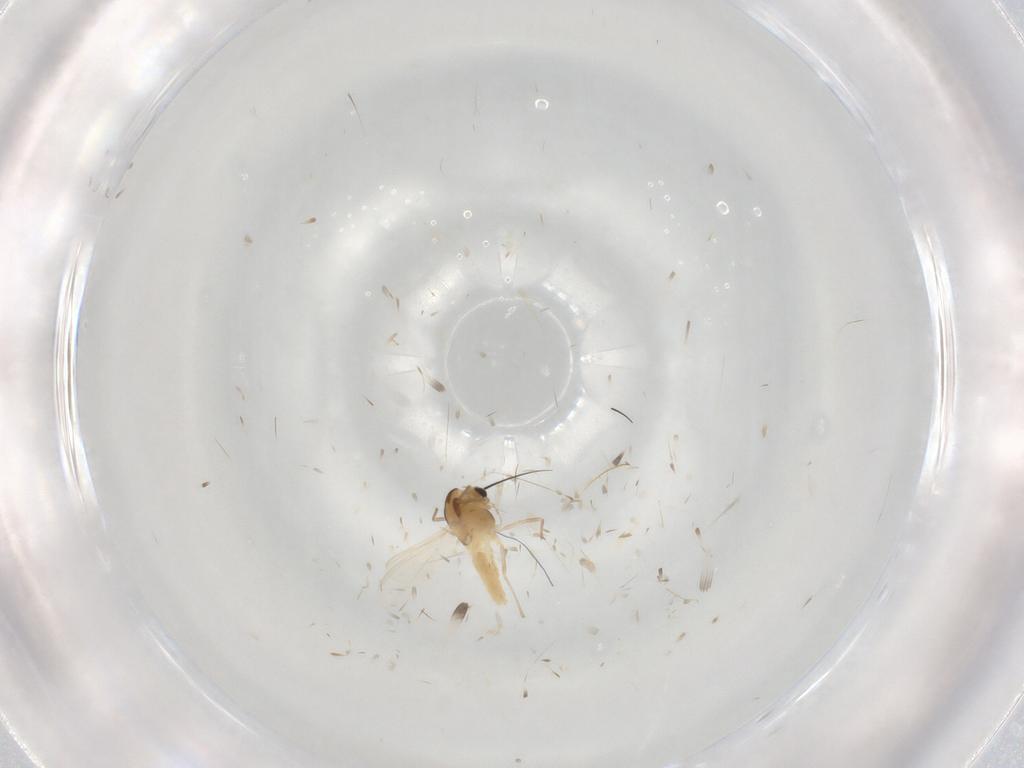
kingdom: Animalia
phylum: Arthropoda
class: Insecta
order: Diptera
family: Chironomidae
